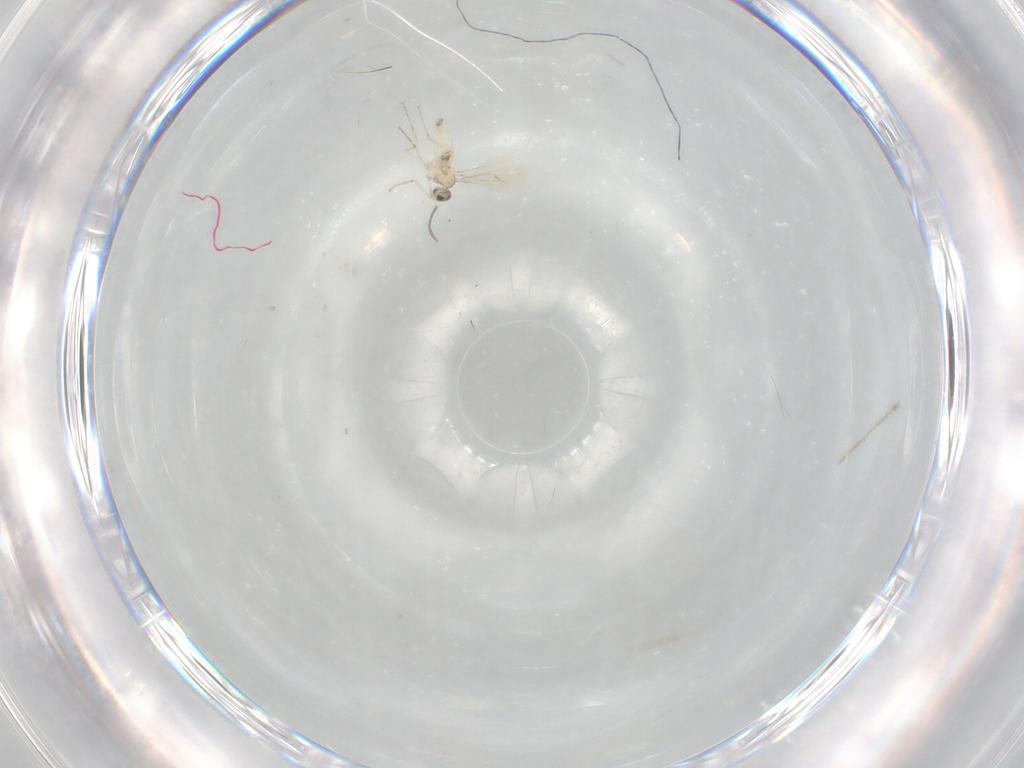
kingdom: Animalia
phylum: Arthropoda
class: Insecta
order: Diptera
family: Cecidomyiidae
